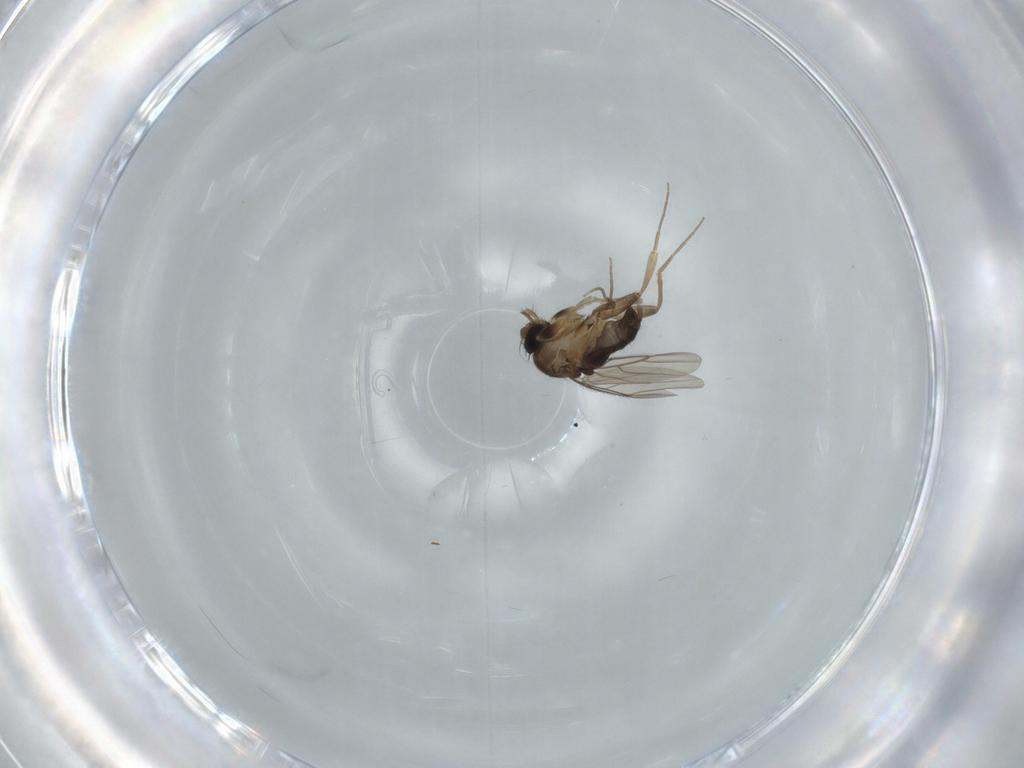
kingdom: Animalia
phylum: Arthropoda
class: Insecta
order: Diptera
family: Phoridae
